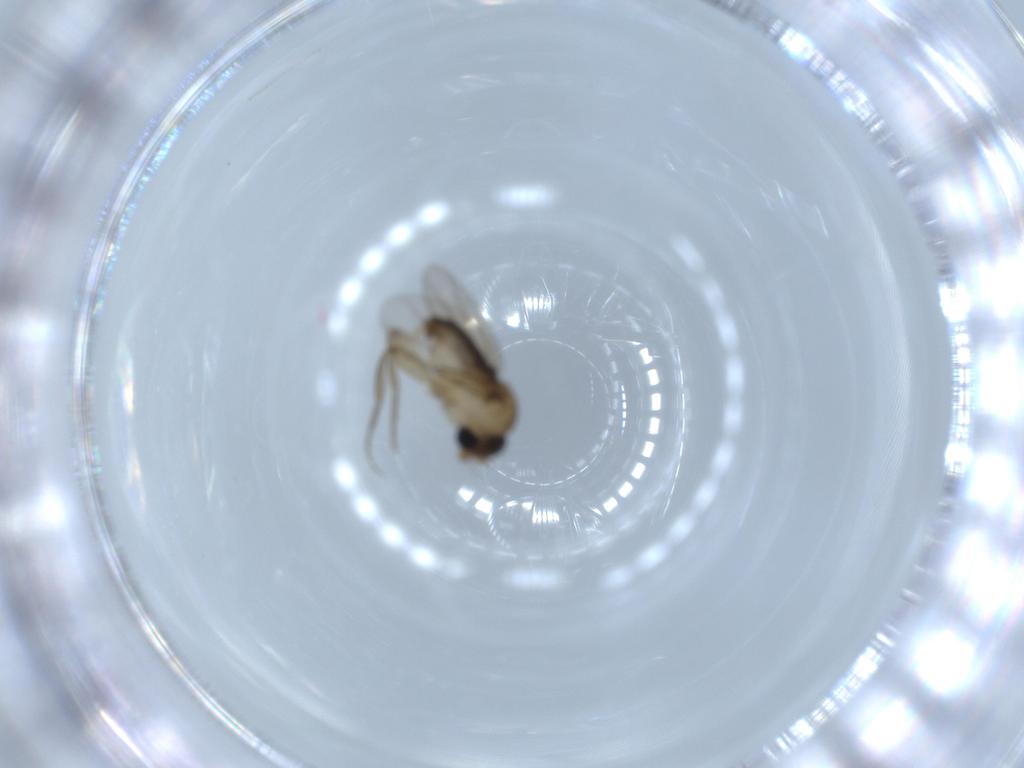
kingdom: Animalia
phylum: Arthropoda
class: Insecta
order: Diptera
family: Phoridae
